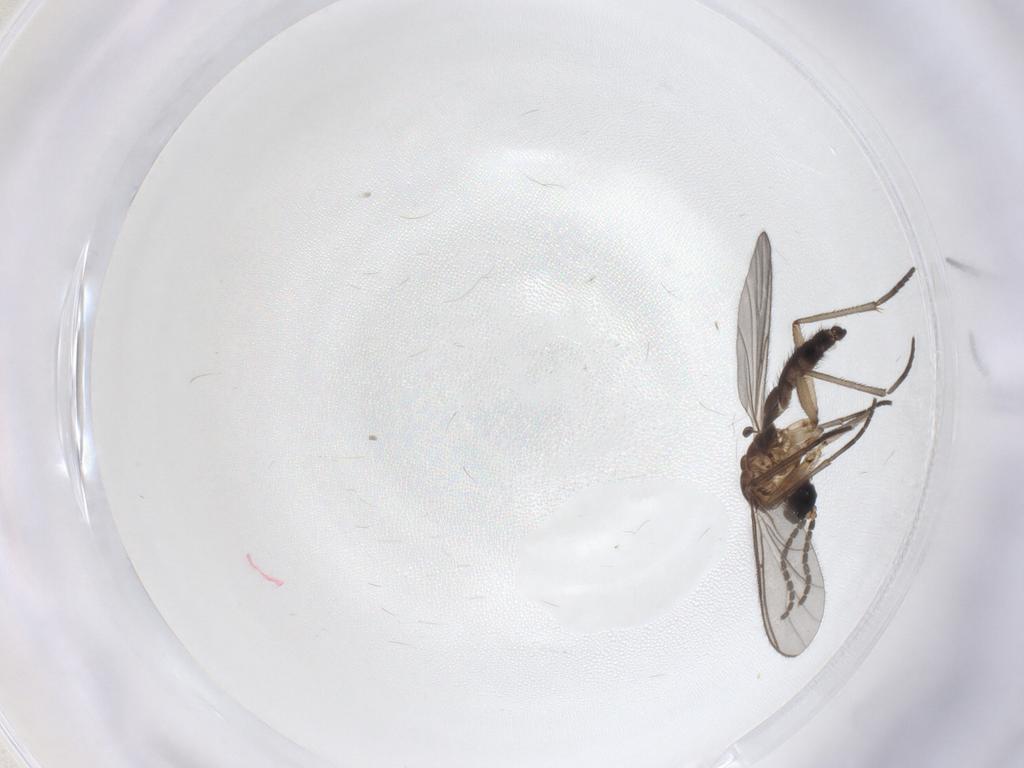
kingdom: Animalia
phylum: Arthropoda
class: Insecta
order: Diptera
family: Sciaridae
